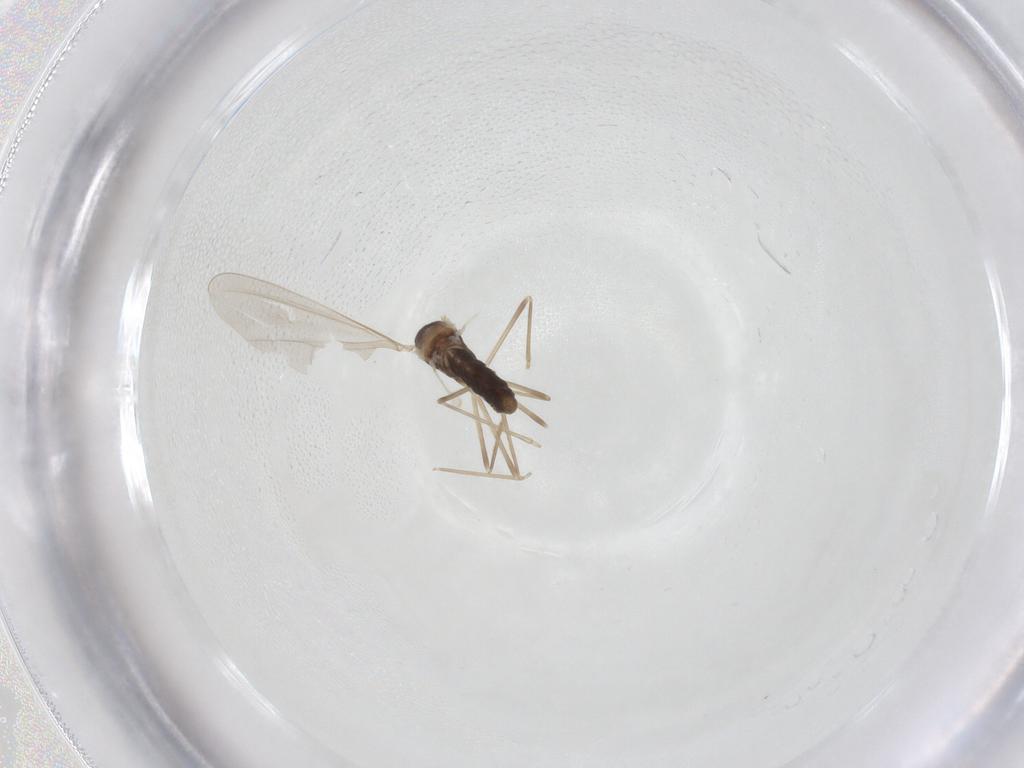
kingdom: Animalia
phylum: Arthropoda
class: Insecta
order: Diptera
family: Cecidomyiidae
